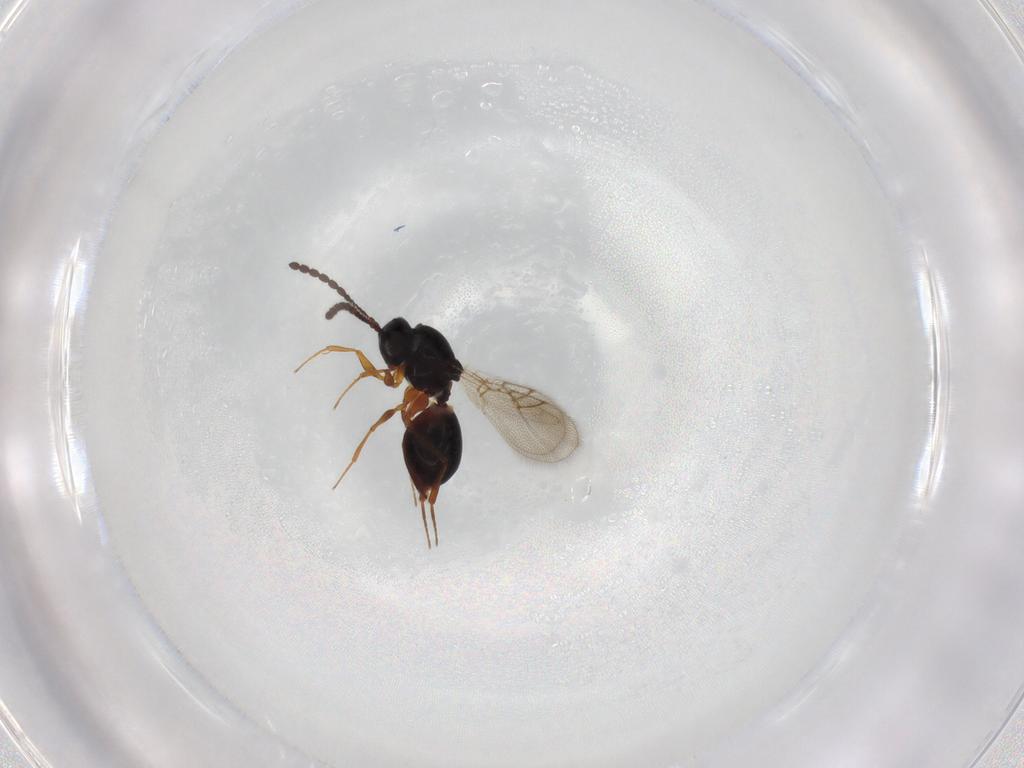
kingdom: Animalia
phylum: Arthropoda
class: Insecta
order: Hymenoptera
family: Figitidae
